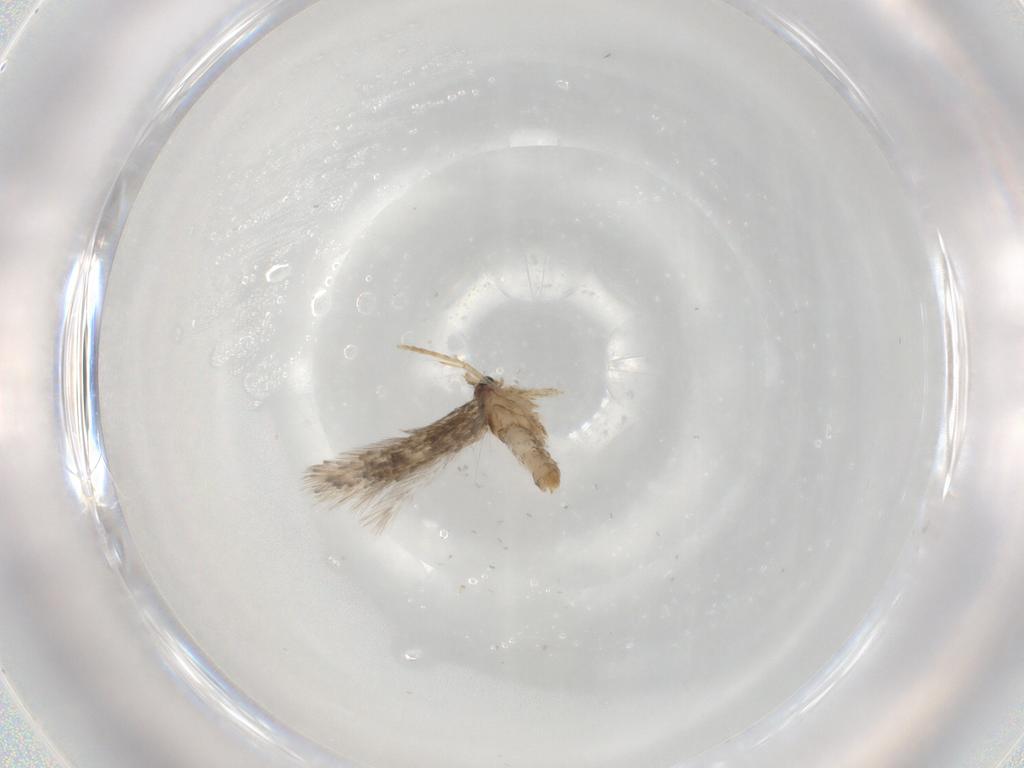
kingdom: Animalia
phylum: Arthropoda
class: Insecta
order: Lepidoptera
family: Nepticulidae
